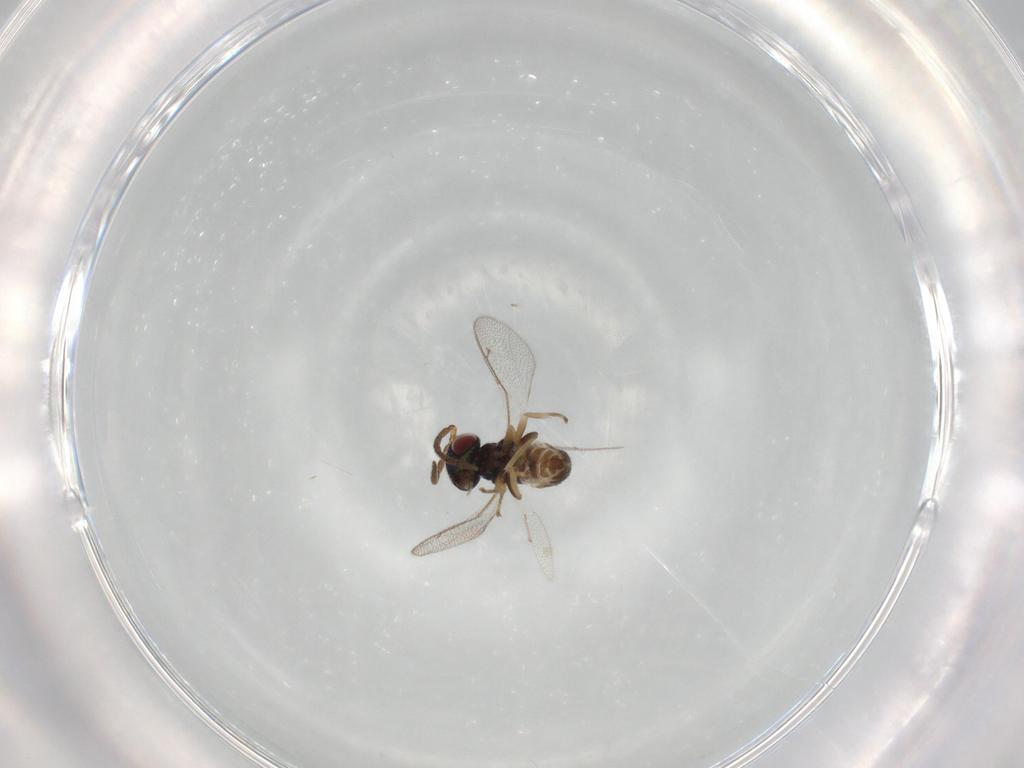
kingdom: Animalia
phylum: Arthropoda
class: Insecta
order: Hymenoptera
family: Pteromalidae
